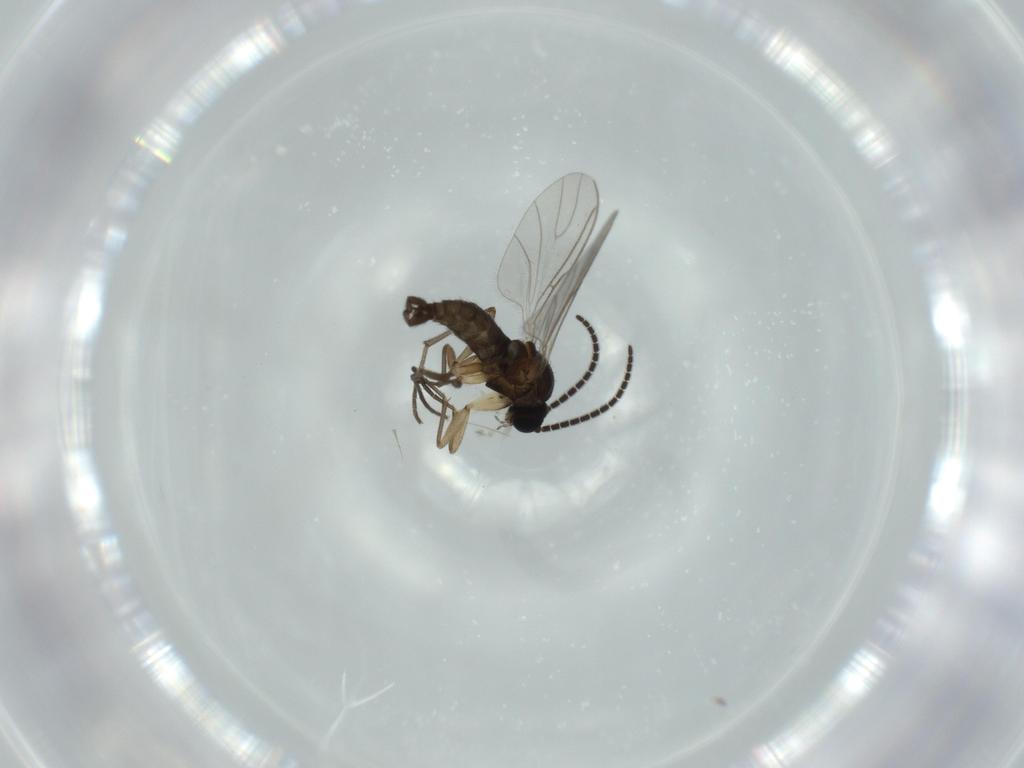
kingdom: Animalia
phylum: Arthropoda
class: Insecta
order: Diptera
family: Sciaridae
